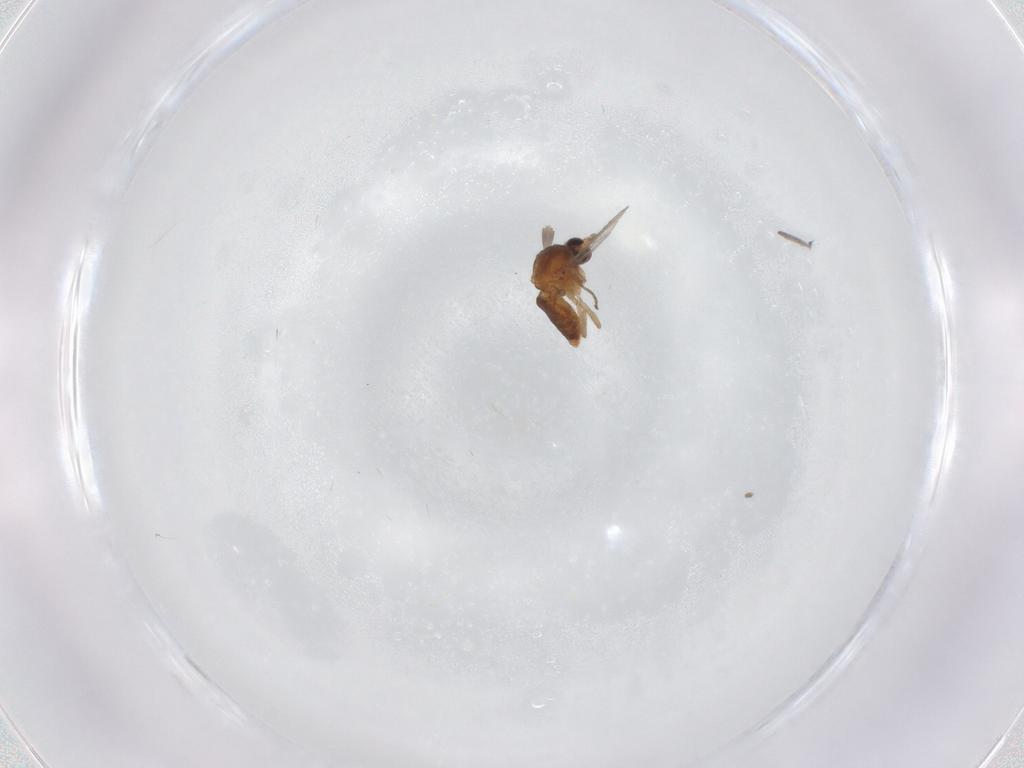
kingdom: Animalia
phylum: Arthropoda
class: Insecta
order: Diptera
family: Ceratopogonidae
